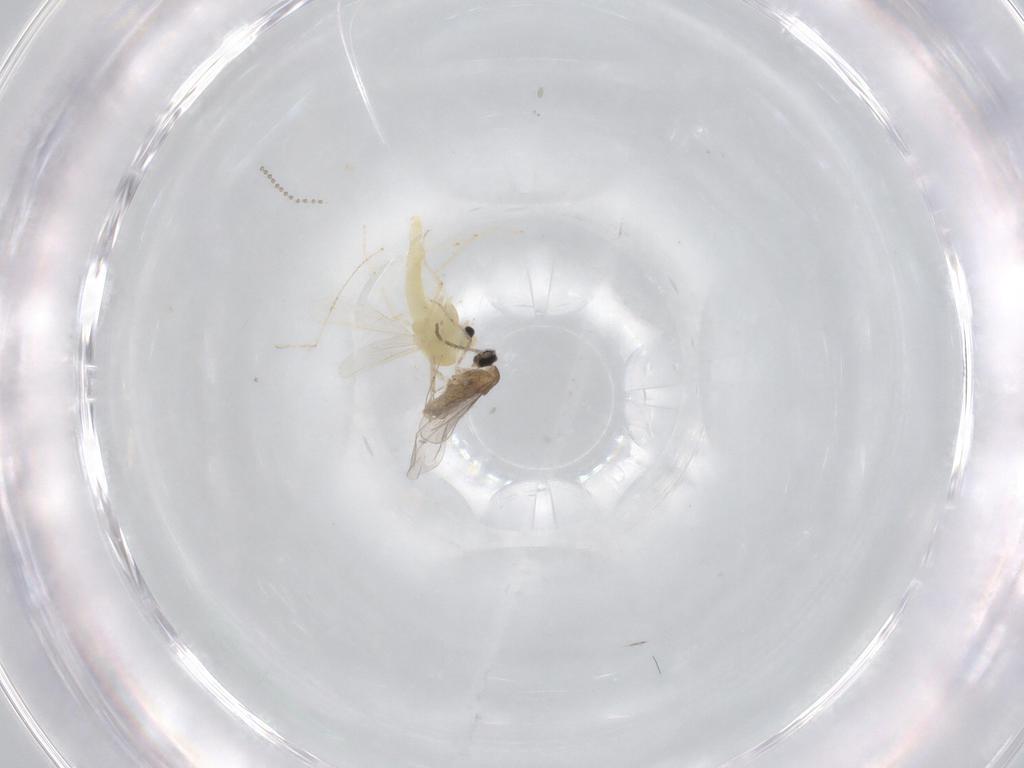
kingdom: Animalia
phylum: Arthropoda
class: Insecta
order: Diptera
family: Chironomidae
